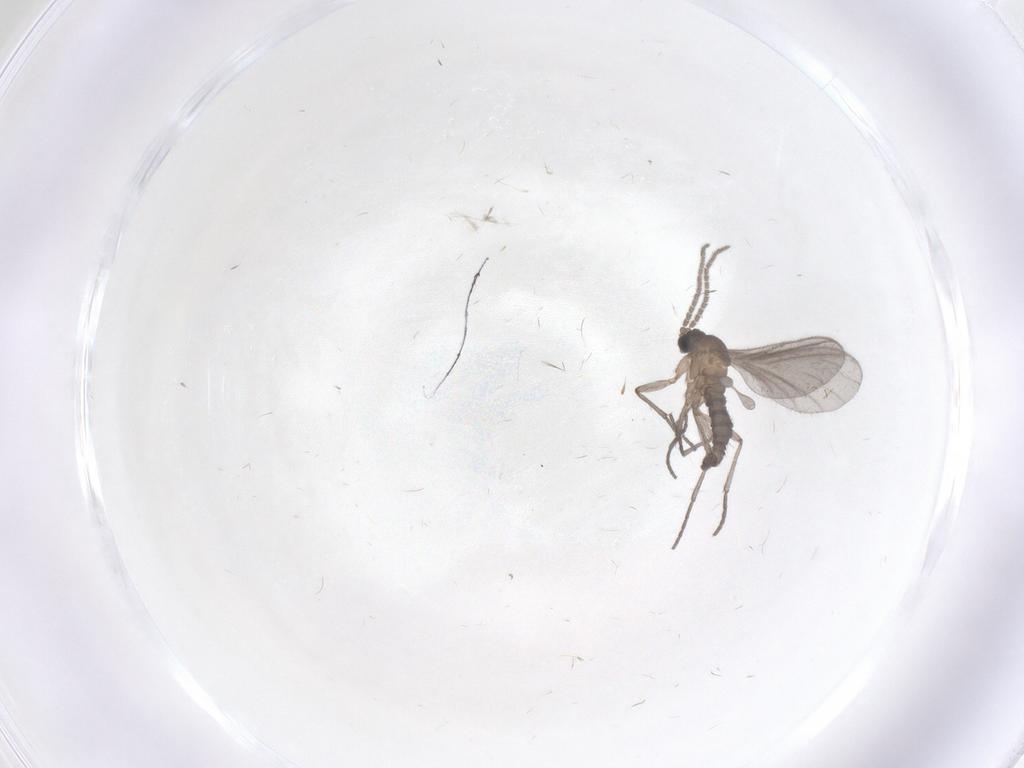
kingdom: Animalia
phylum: Arthropoda
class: Insecta
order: Diptera
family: Sciaridae
